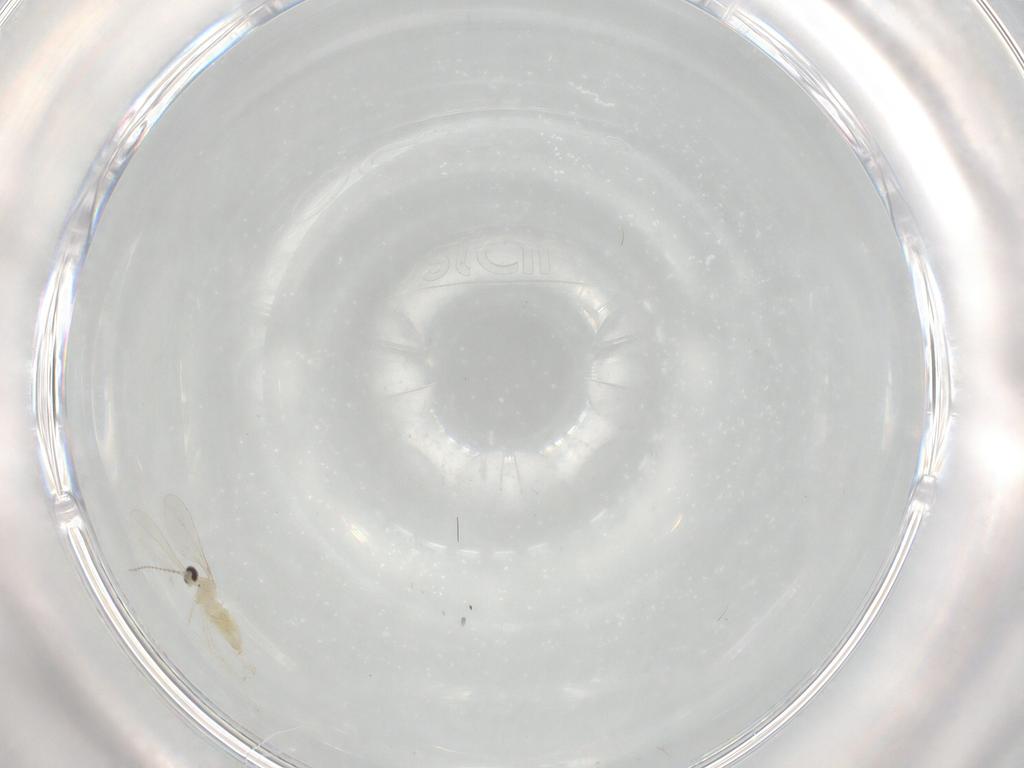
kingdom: Animalia
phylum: Arthropoda
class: Insecta
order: Diptera
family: Cecidomyiidae
